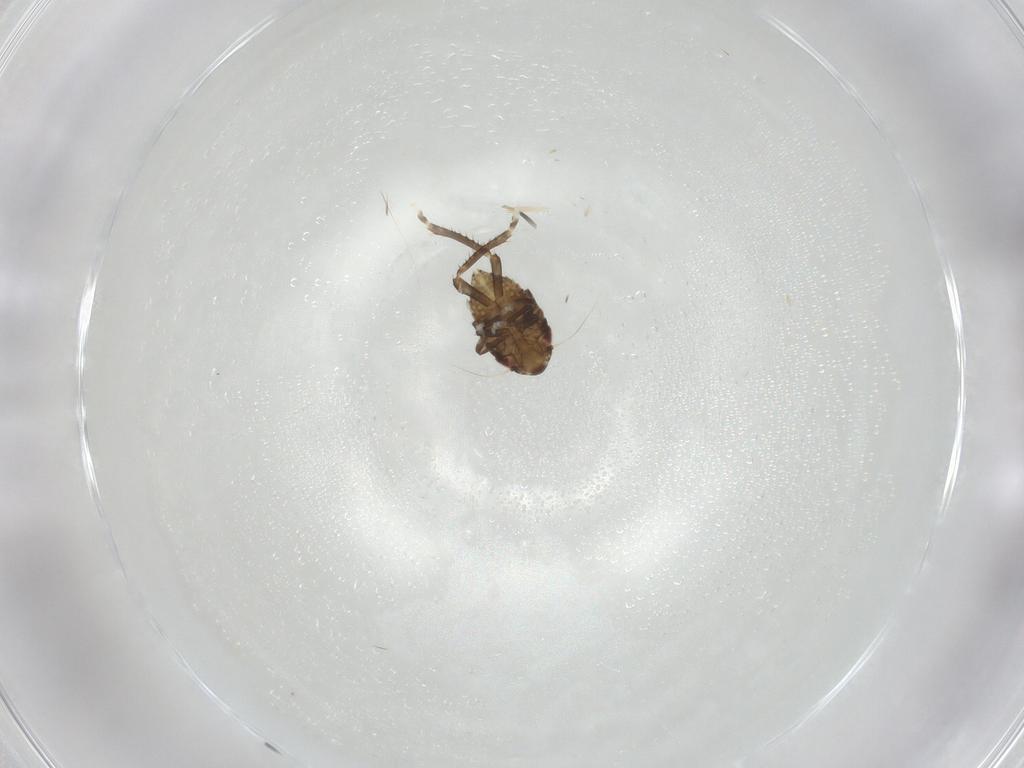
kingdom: Animalia
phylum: Arthropoda
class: Insecta
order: Hemiptera
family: Cicadellidae
